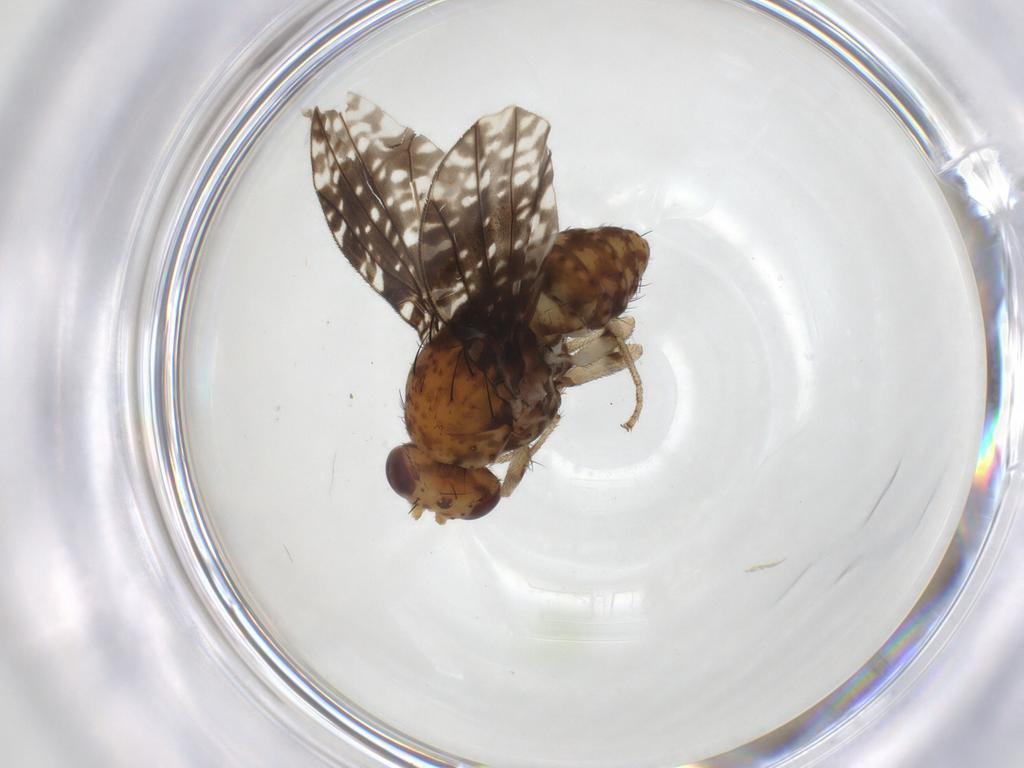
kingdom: Animalia
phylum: Arthropoda
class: Insecta
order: Diptera
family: Lauxaniidae
